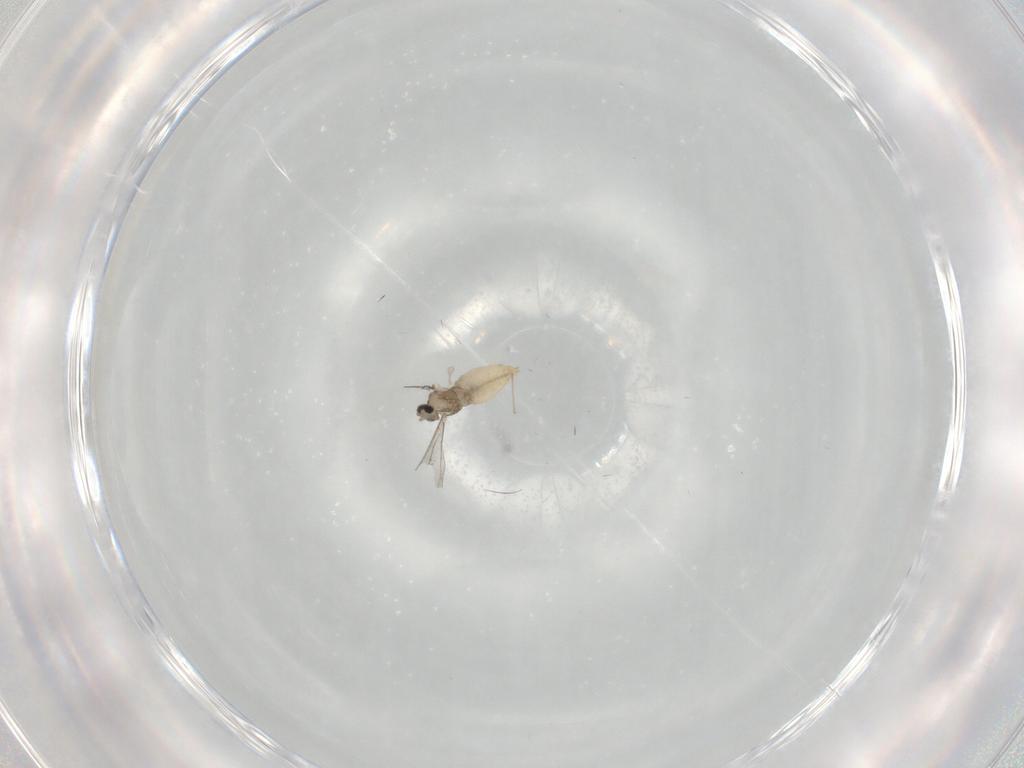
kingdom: Animalia
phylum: Arthropoda
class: Insecta
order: Diptera
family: Cecidomyiidae
